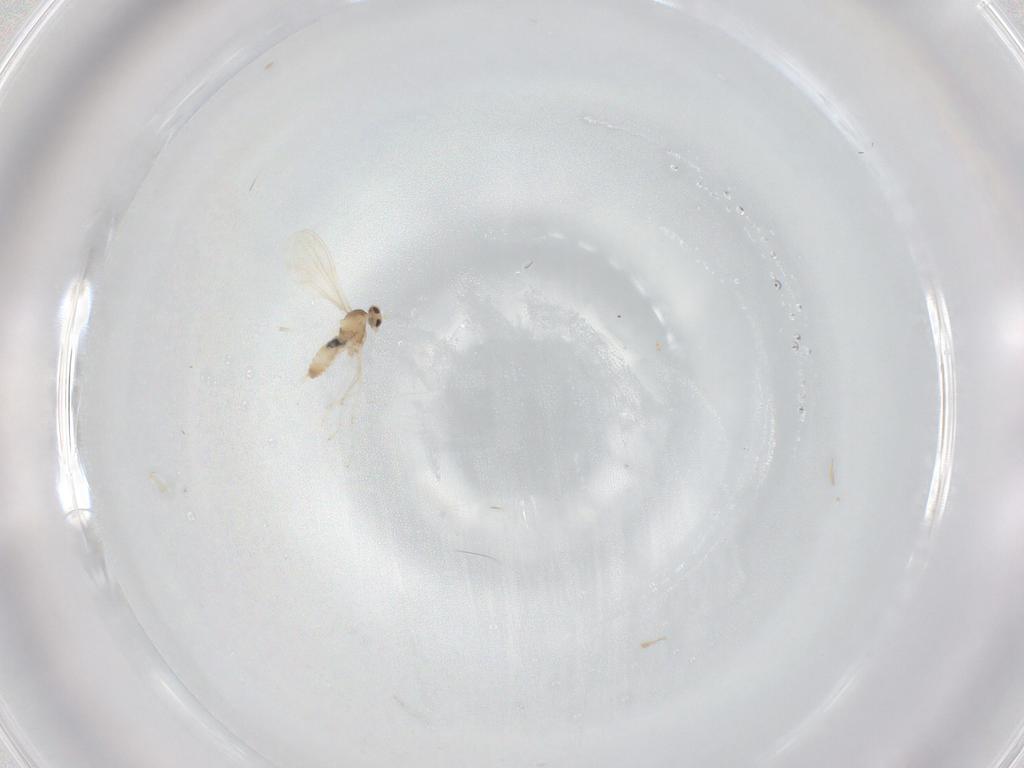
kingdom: Animalia
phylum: Arthropoda
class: Insecta
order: Diptera
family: Cecidomyiidae
